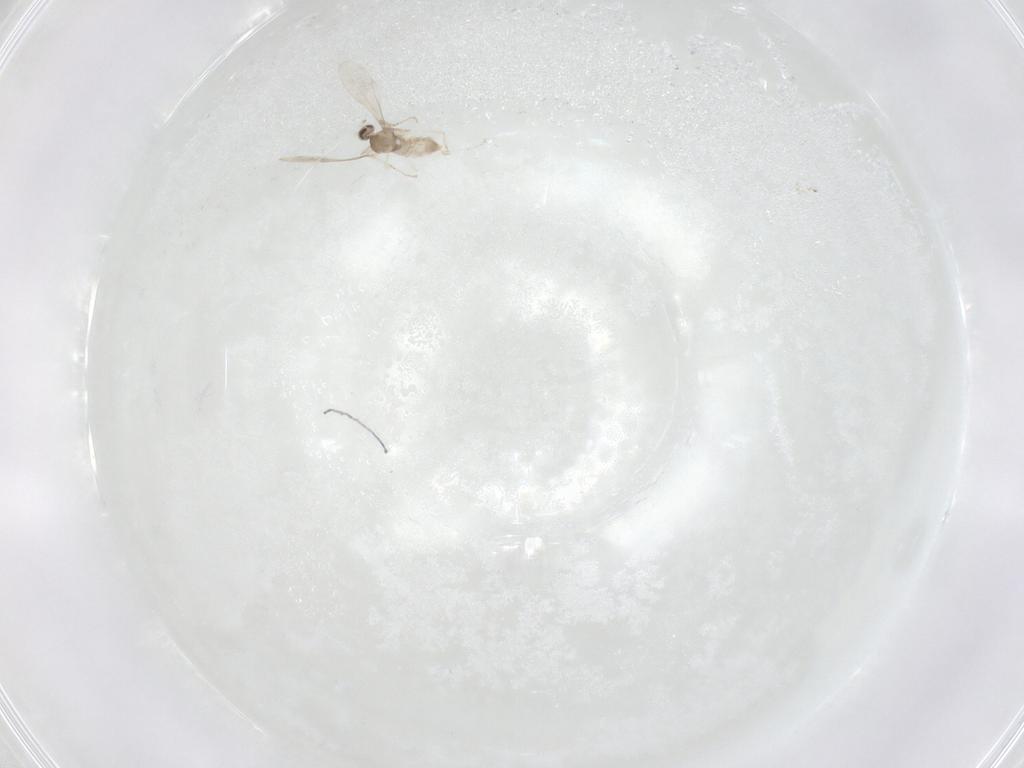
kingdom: Animalia
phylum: Arthropoda
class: Insecta
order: Diptera
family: Cecidomyiidae
